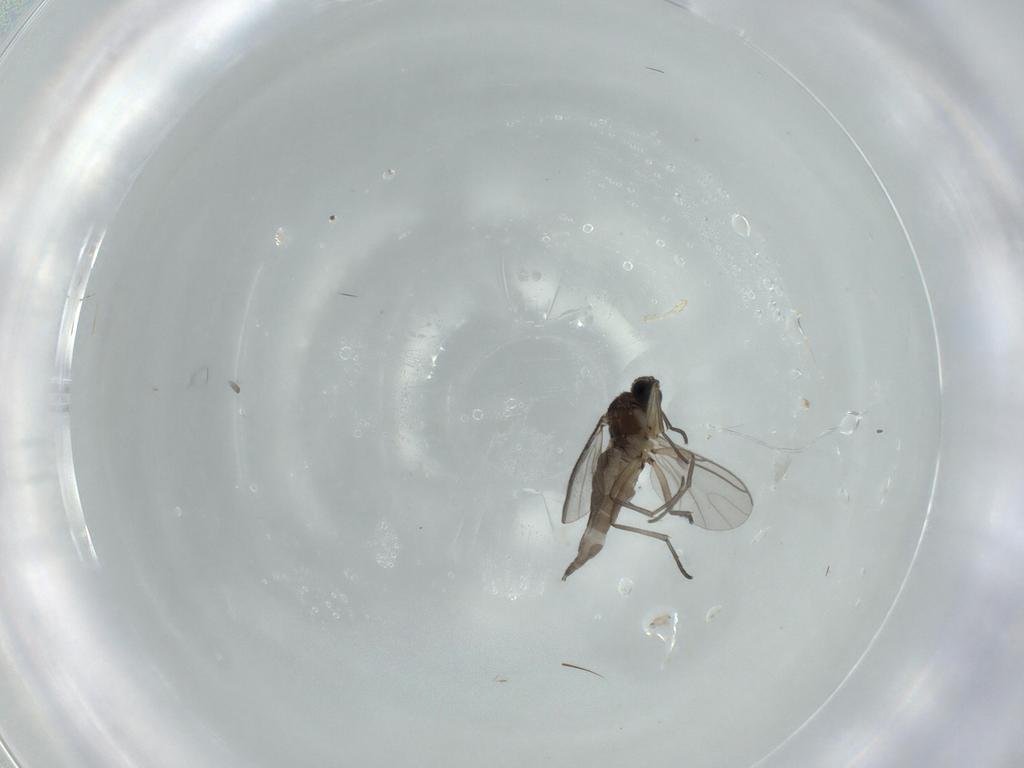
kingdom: Animalia
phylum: Arthropoda
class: Insecta
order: Diptera
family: Sciaridae
